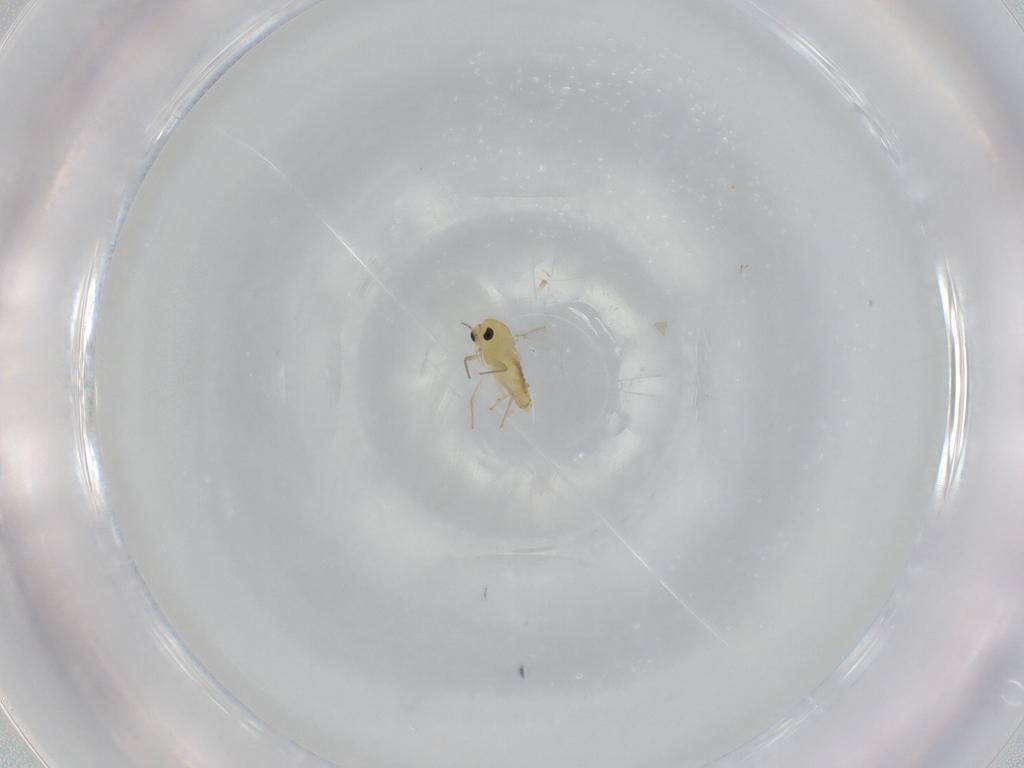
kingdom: Animalia
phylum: Arthropoda
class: Insecta
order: Diptera
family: Chironomidae
